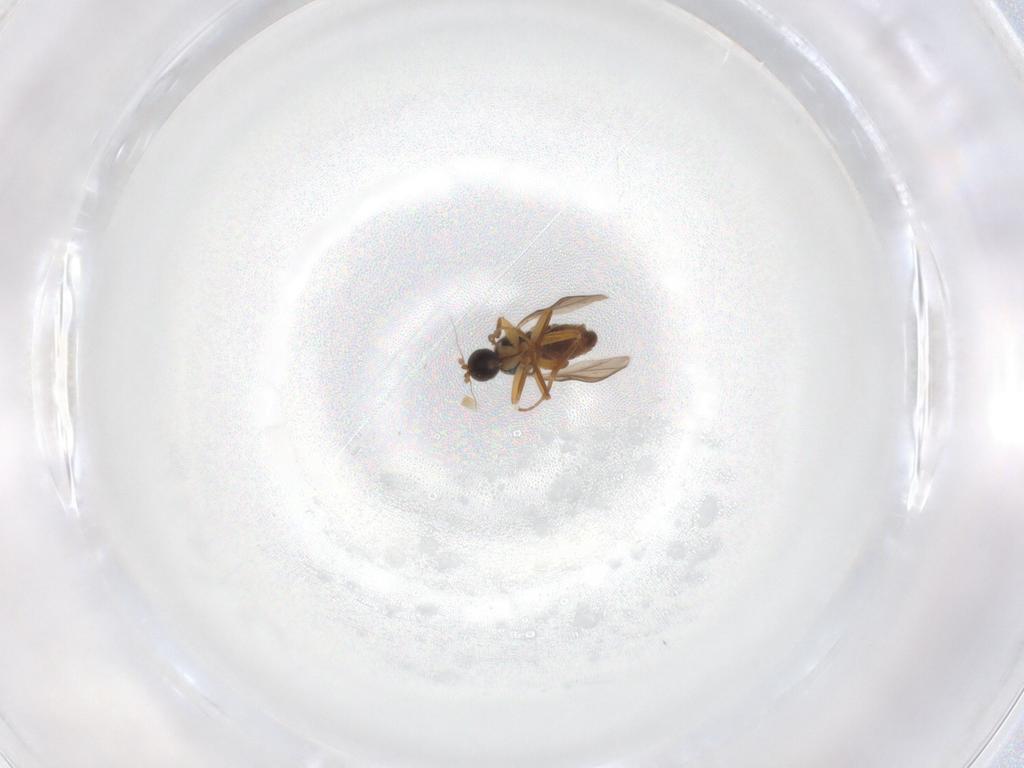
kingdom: Animalia
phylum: Arthropoda
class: Insecta
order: Diptera
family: Hybotidae
